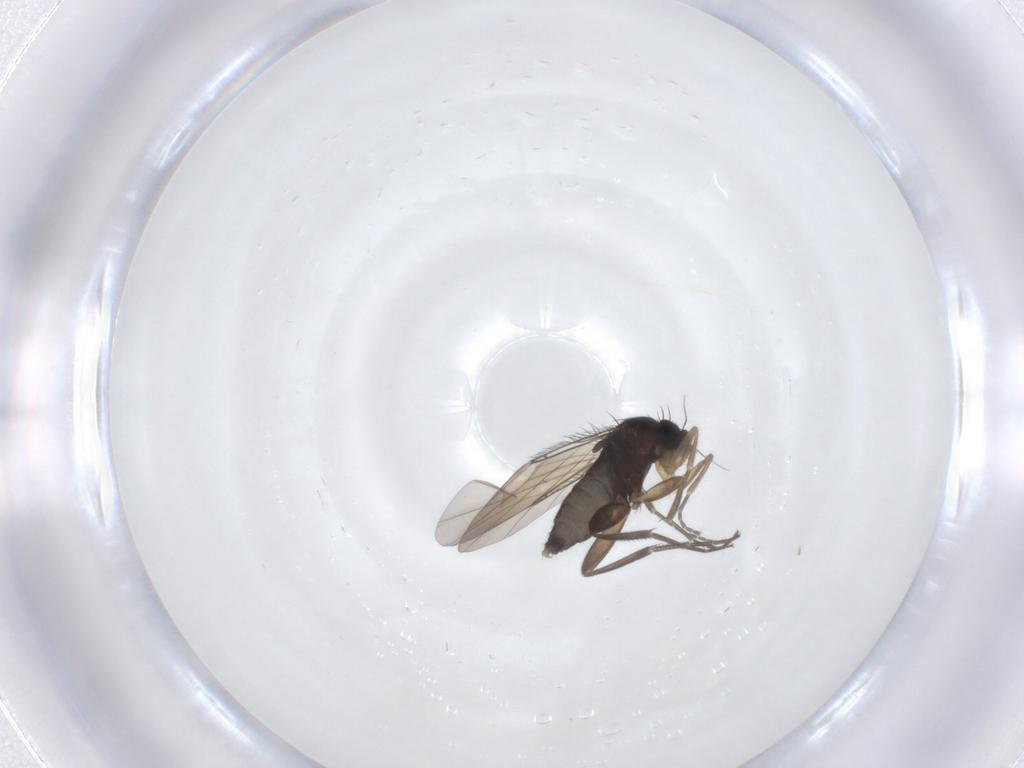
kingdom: Animalia
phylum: Arthropoda
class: Insecta
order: Diptera
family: Phoridae
